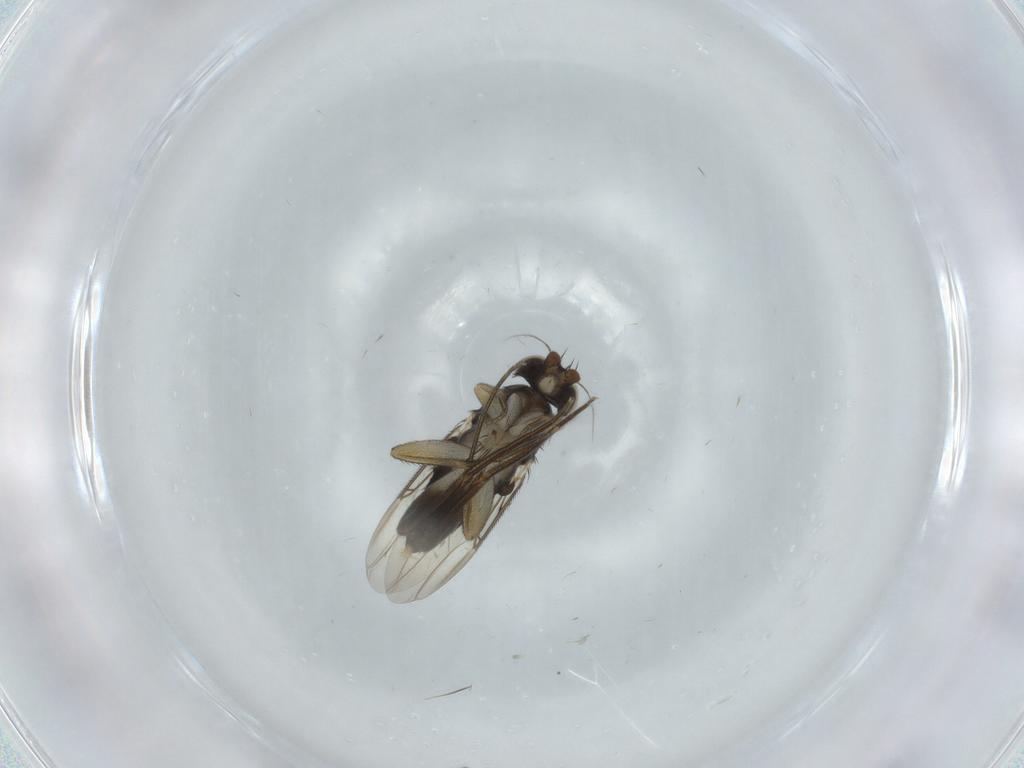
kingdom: Animalia
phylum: Arthropoda
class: Insecta
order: Diptera
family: Phoridae
